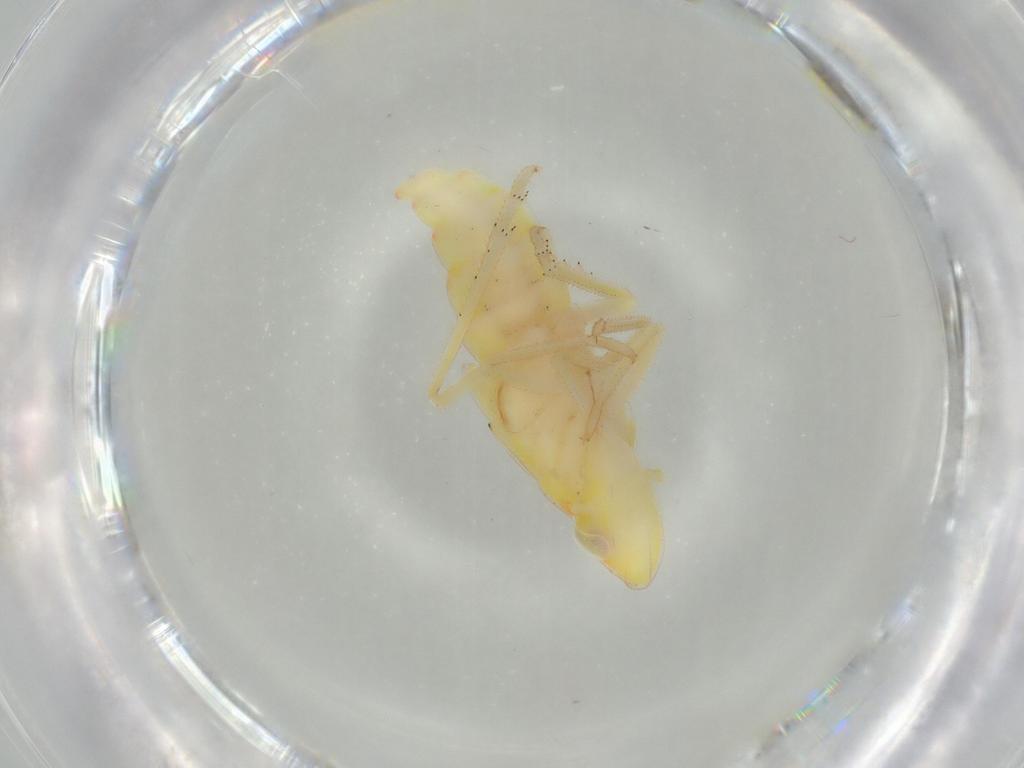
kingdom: Animalia
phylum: Arthropoda
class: Insecta
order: Hemiptera
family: Tropiduchidae
